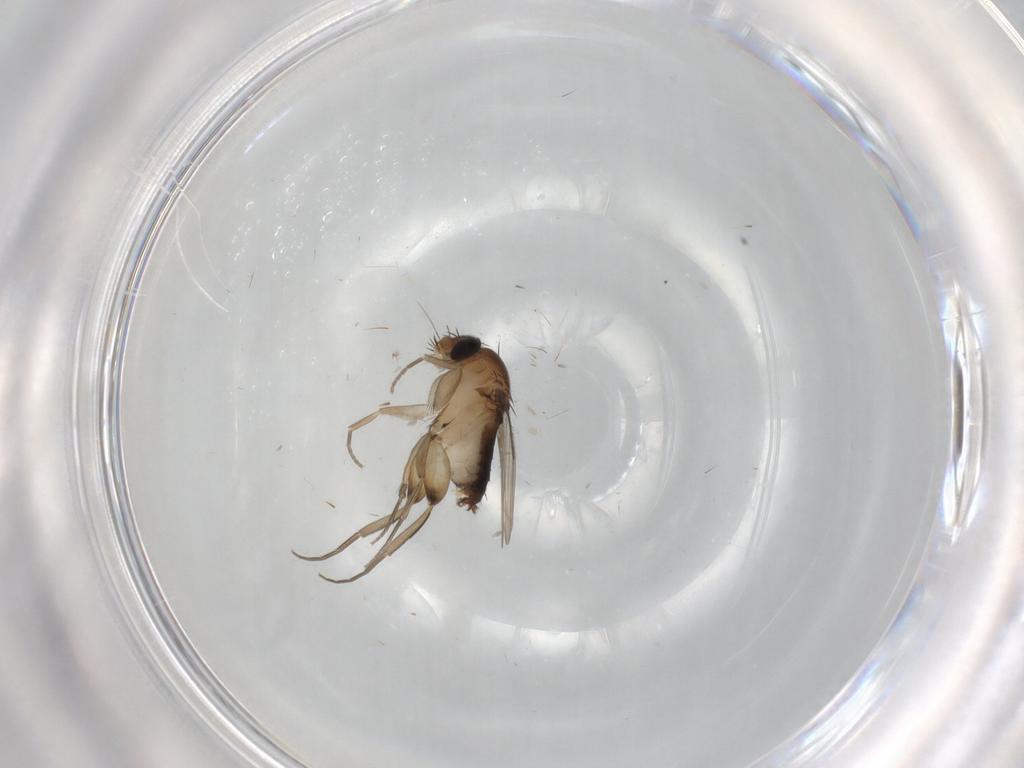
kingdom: Animalia
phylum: Arthropoda
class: Insecta
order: Diptera
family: Phoridae
